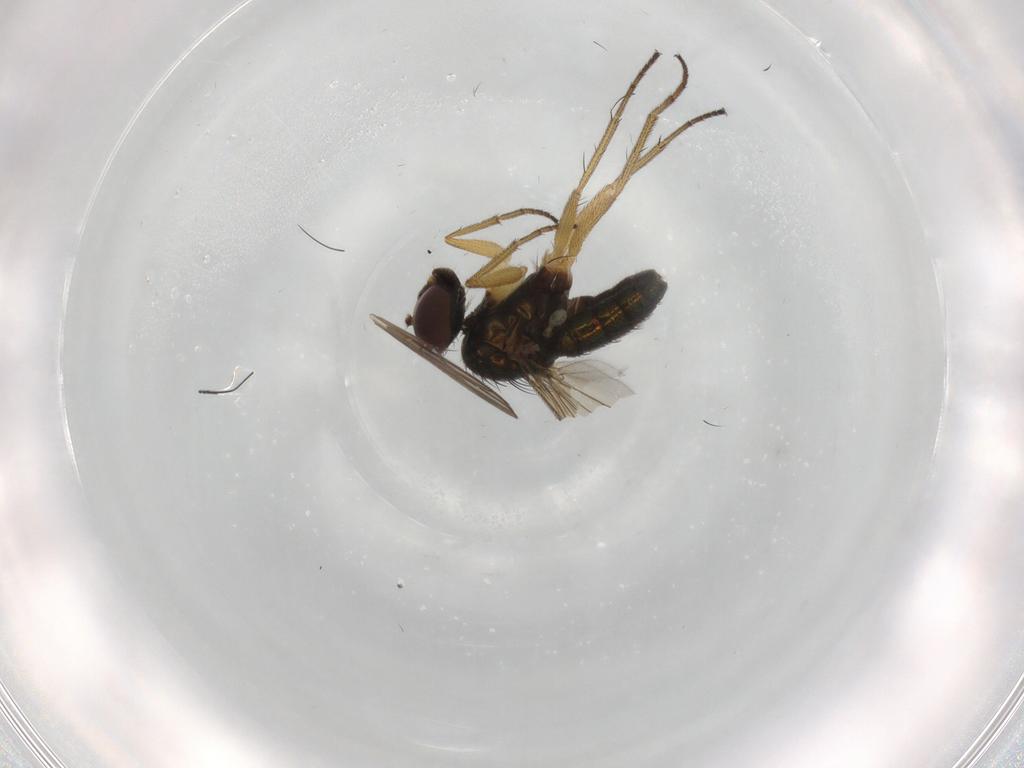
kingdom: Animalia
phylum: Arthropoda
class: Insecta
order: Diptera
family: Dolichopodidae
